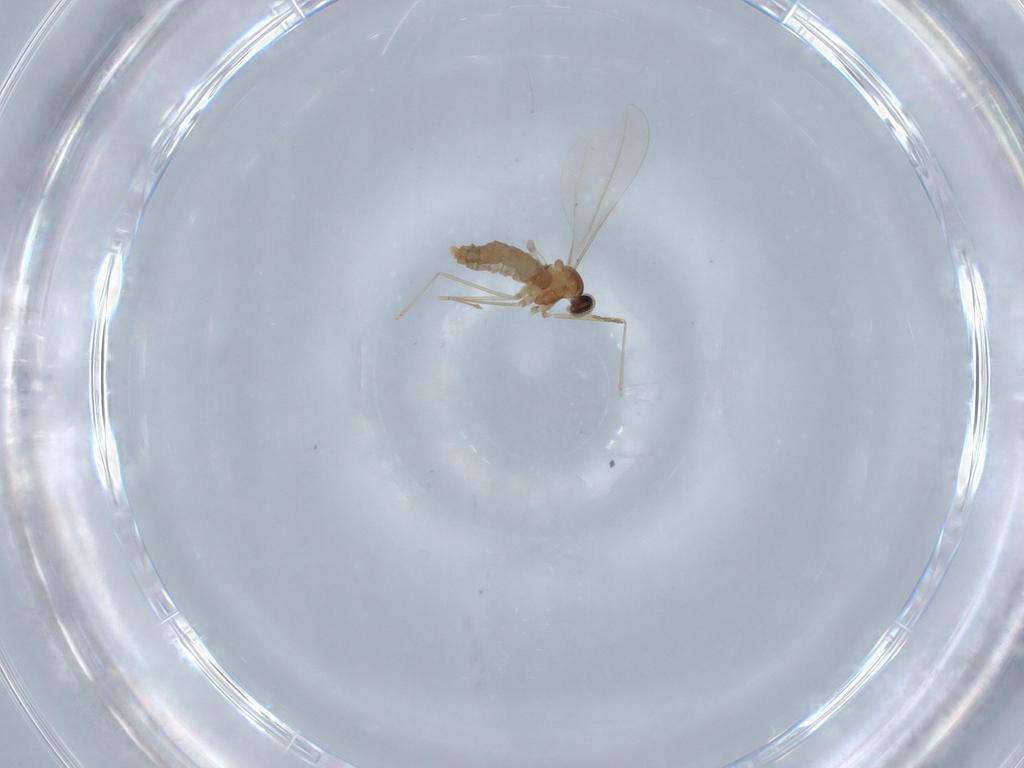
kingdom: Animalia
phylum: Arthropoda
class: Insecta
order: Diptera
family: Cecidomyiidae
